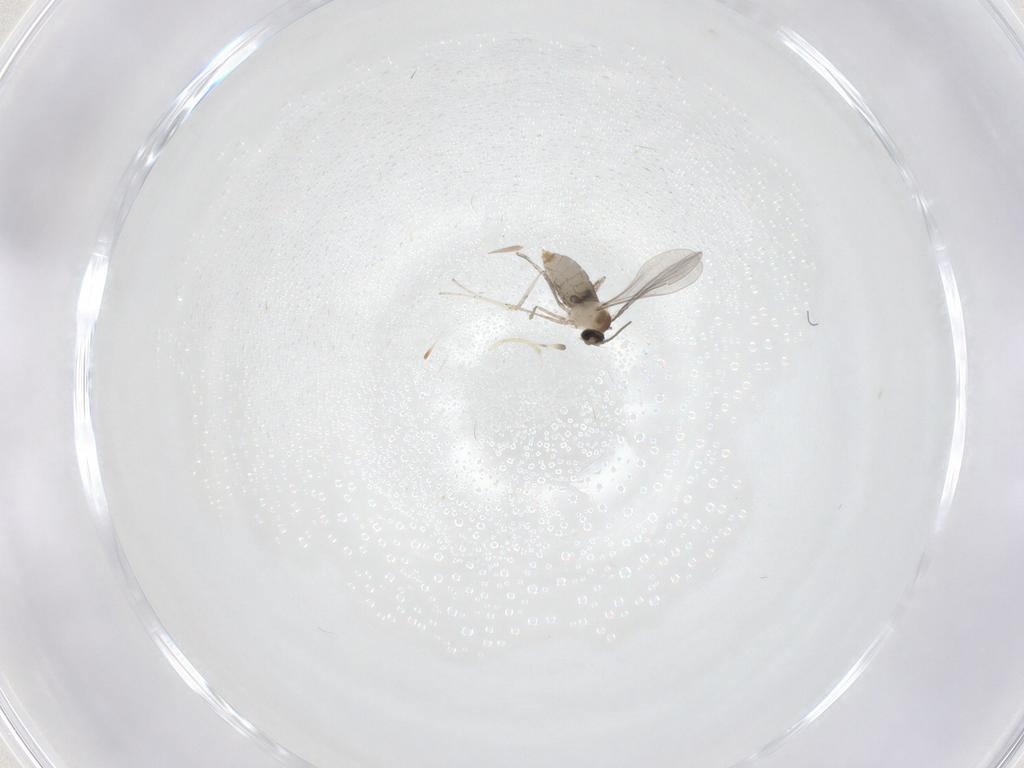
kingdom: Animalia
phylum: Arthropoda
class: Insecta
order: Diptera
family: Cecidomyiidae
